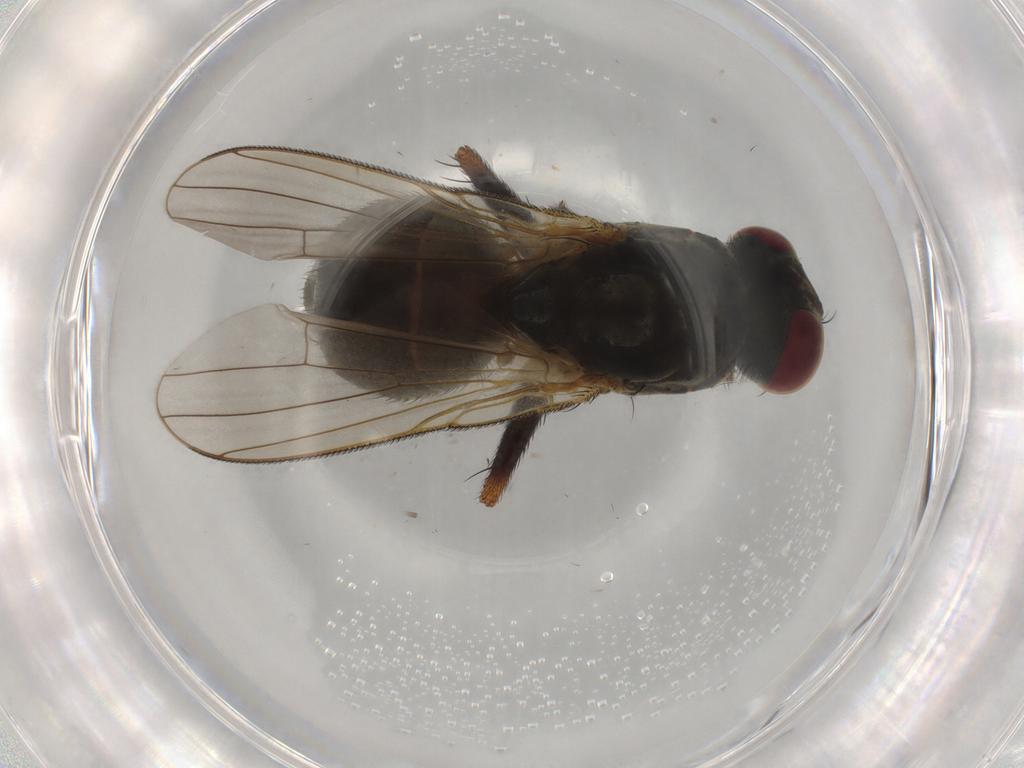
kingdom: Animalia
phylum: Arthropoda
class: Insecta
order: Diptera
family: Muscidae
